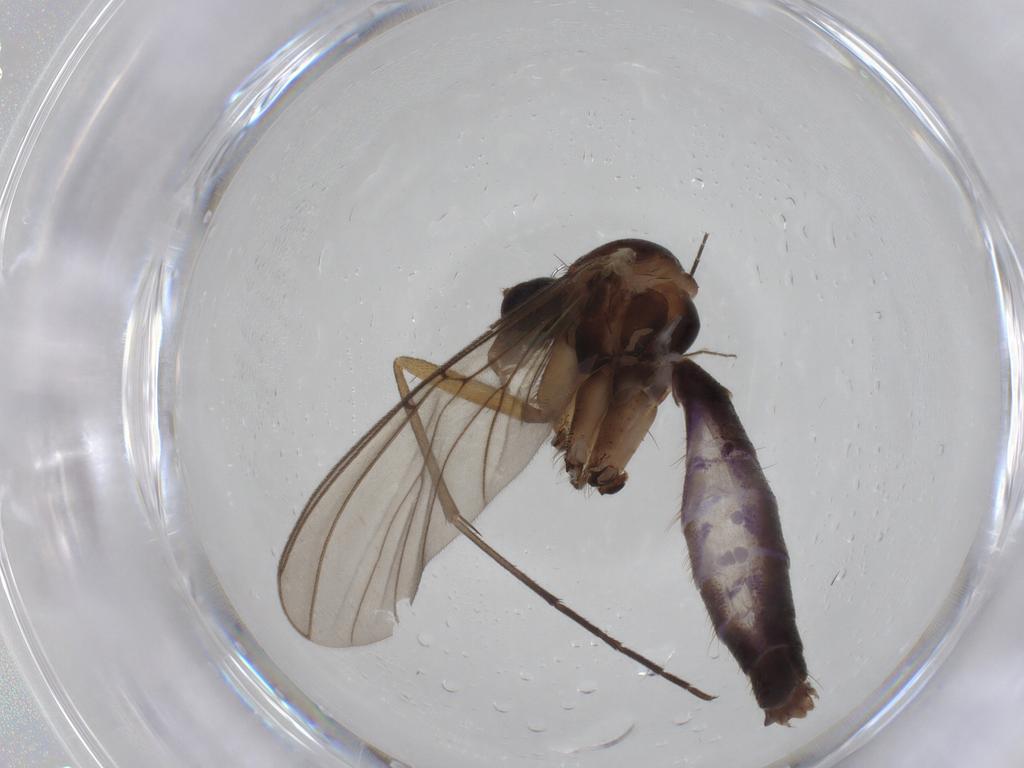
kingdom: Animalia
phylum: Arthropoda
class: Insecta
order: Diptera
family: Sciaridae
